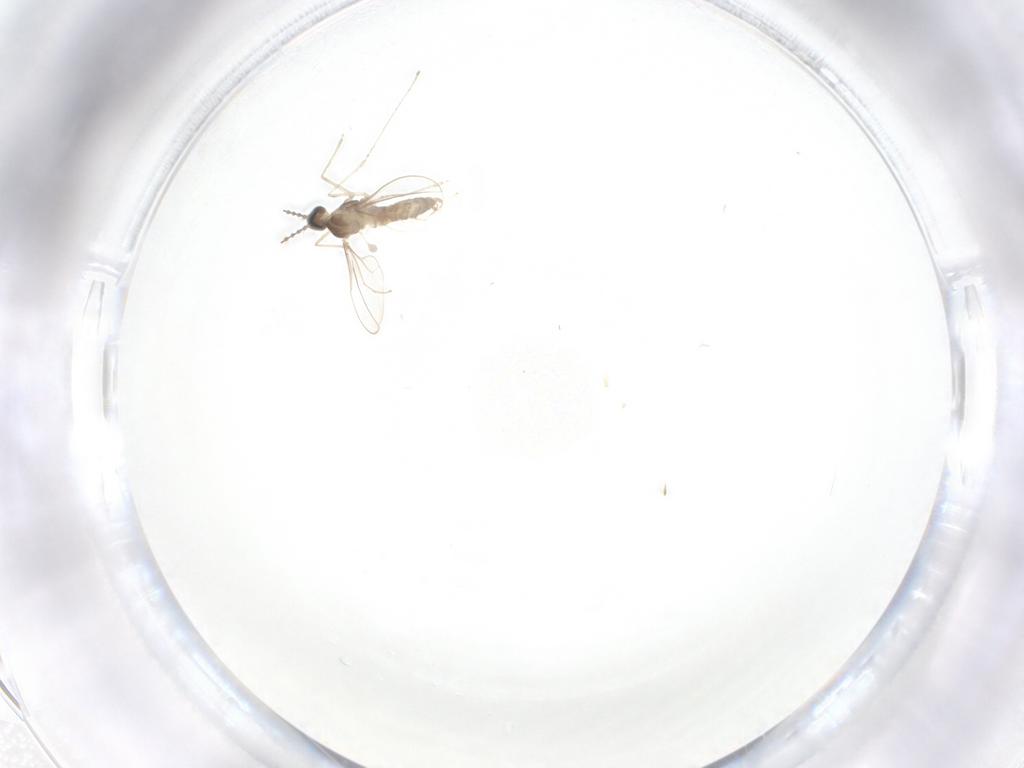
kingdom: Animalia
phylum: Arthropoda
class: Insecta
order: Diptera
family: Cecidomyiidae
